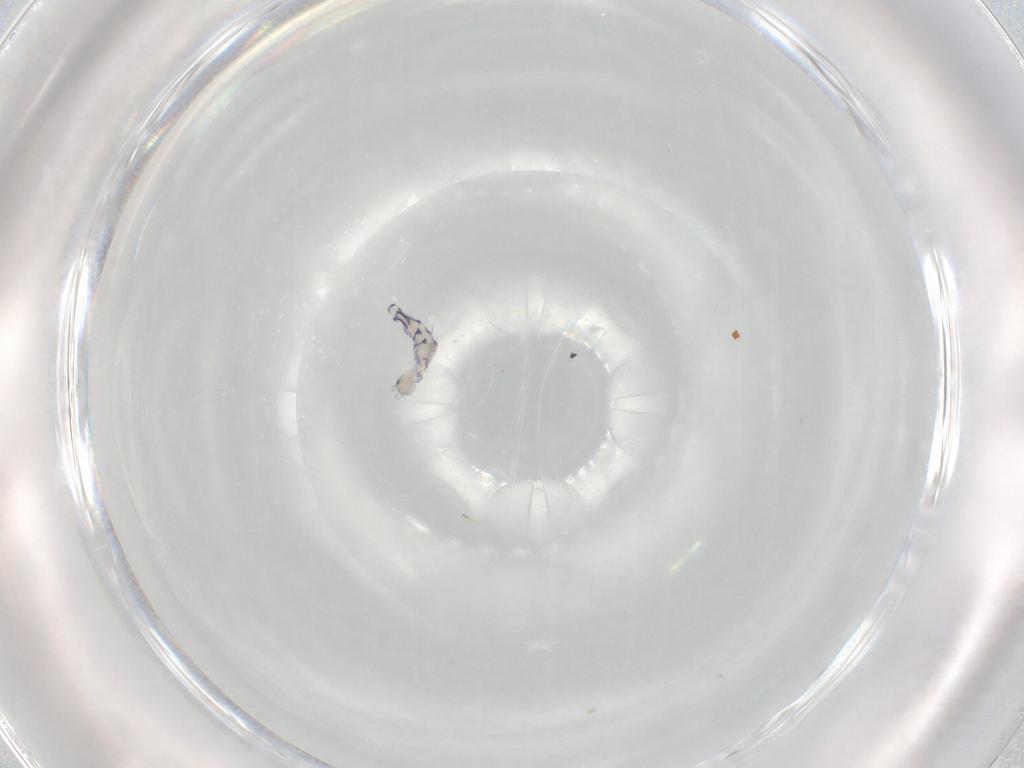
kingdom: Animalia
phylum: Arthropoda
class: Collembola
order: Entomobryomorpha
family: Entomobryidae
